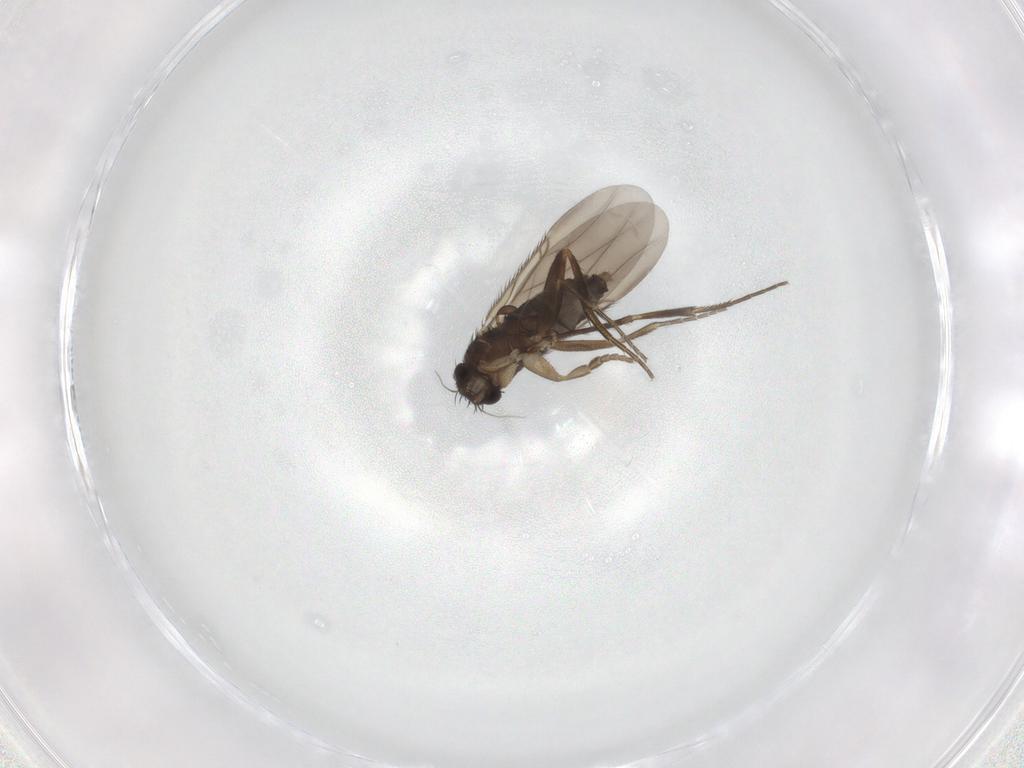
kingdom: Animalia
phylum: Arthropoda
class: Insecta
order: Diptera
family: Phoridae
